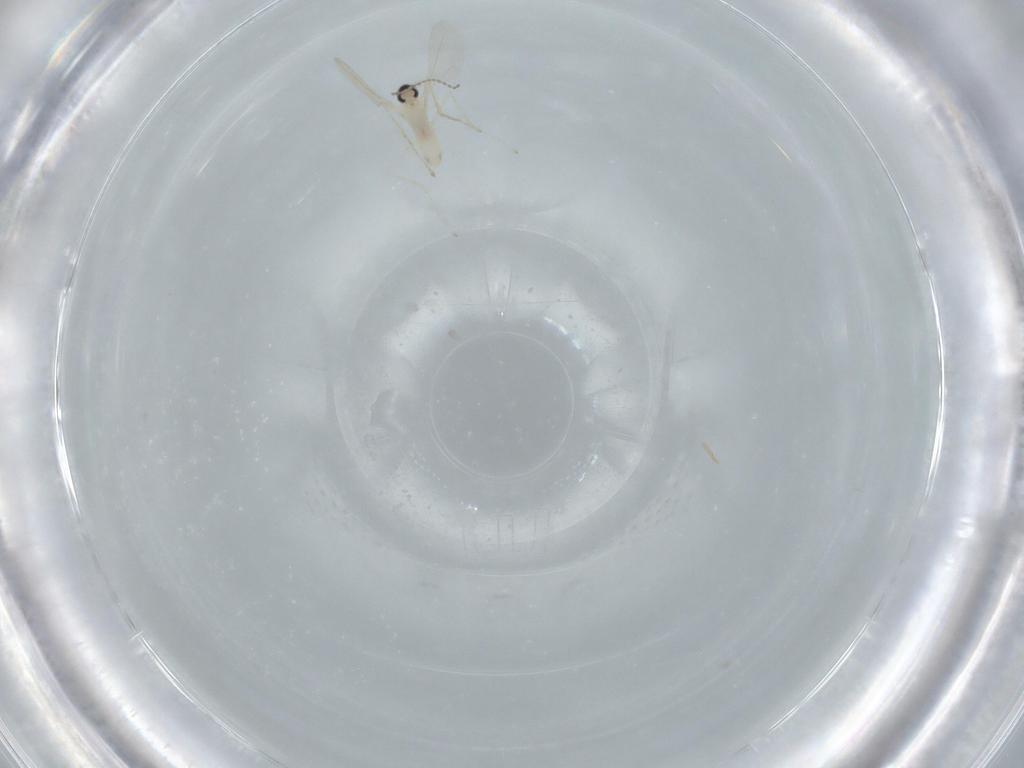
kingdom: Animalia
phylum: Arthropoda
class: Insecta
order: Diptera
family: Cecidomyiidae
